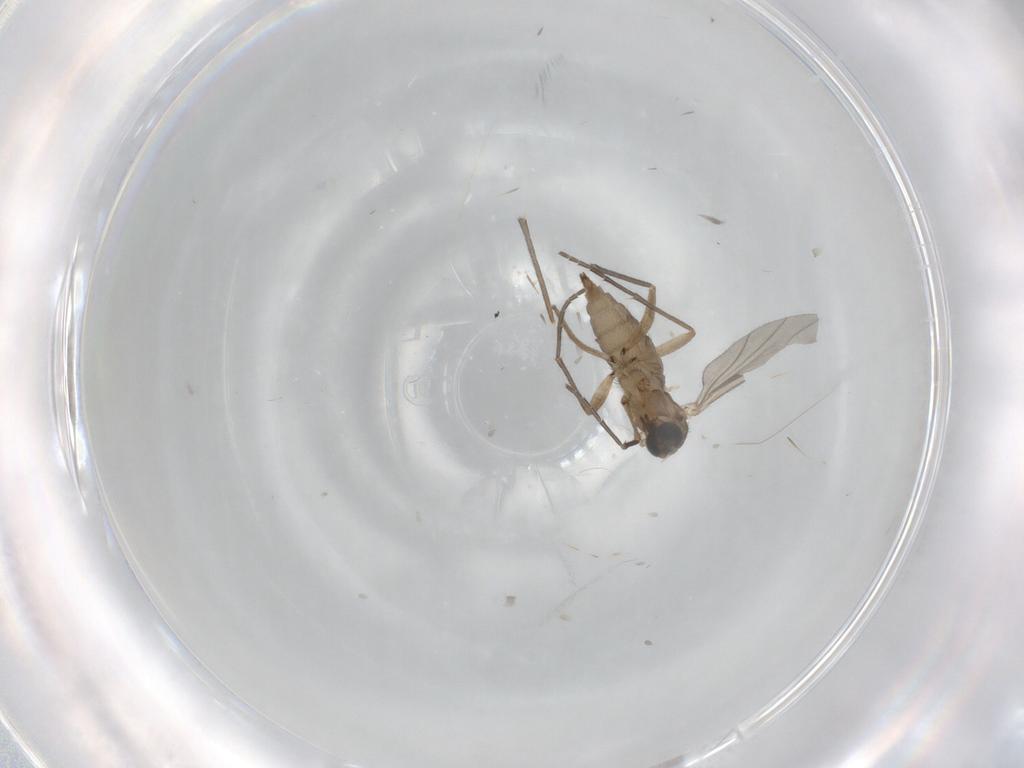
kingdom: Animalia
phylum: Arthropoda
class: Insecta
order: Diptera
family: Sciaridae
